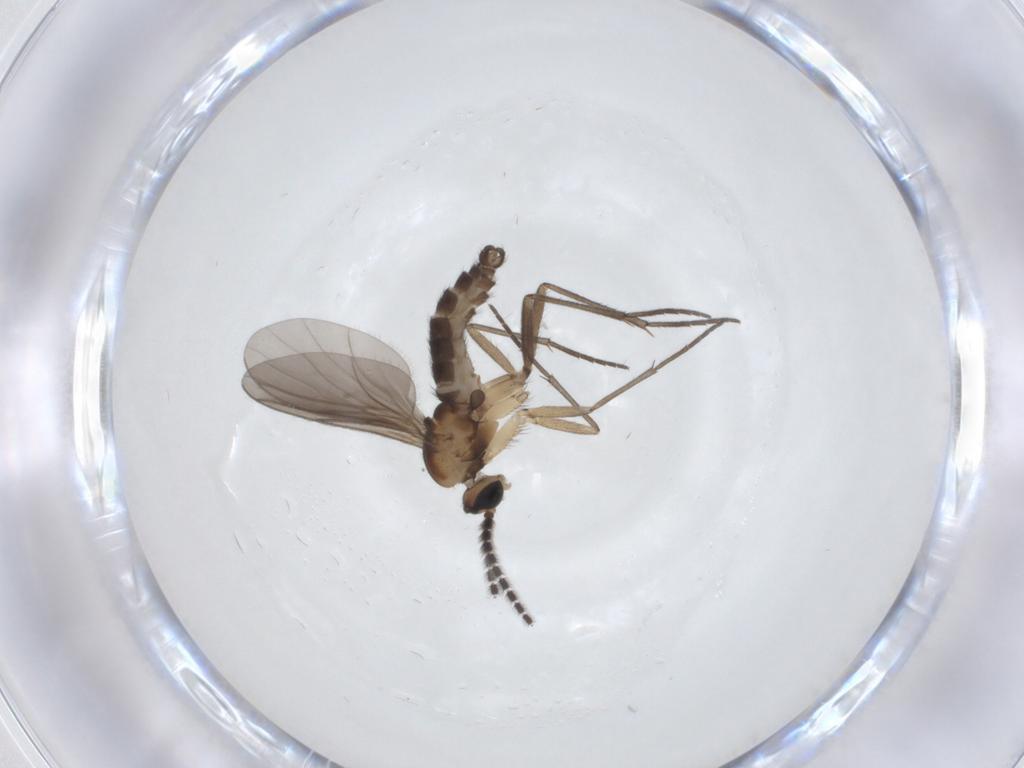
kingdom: Animalia
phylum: Arthropoda
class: Insecta
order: Diptera
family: Sciaridae
